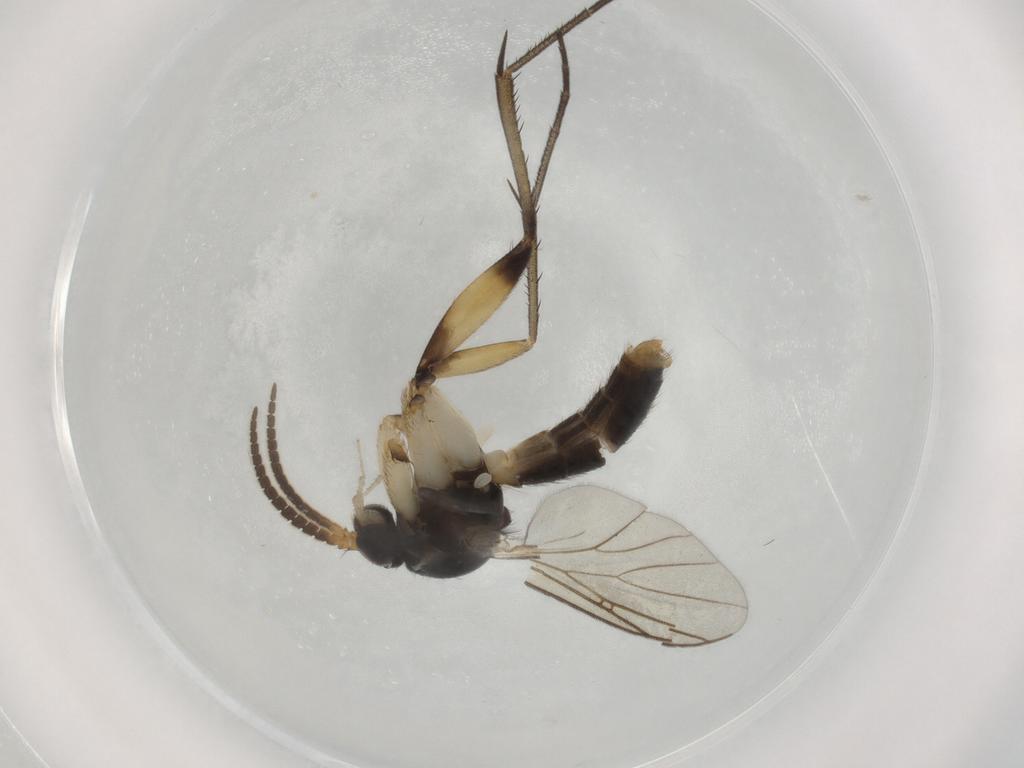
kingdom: Animalia
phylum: Arthropoda
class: Insecta
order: Diptera
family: Mycetophilidae
